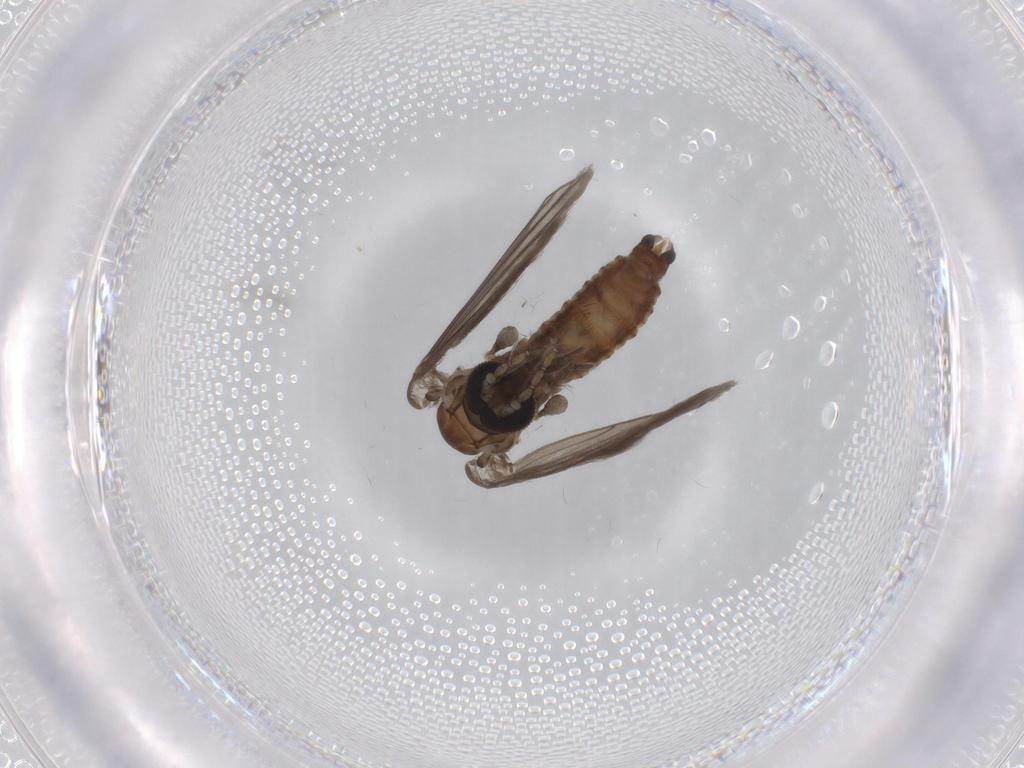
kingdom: Animalia
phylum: Arthropoda
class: Insecta
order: Diptera
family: Cecidomyiidae
